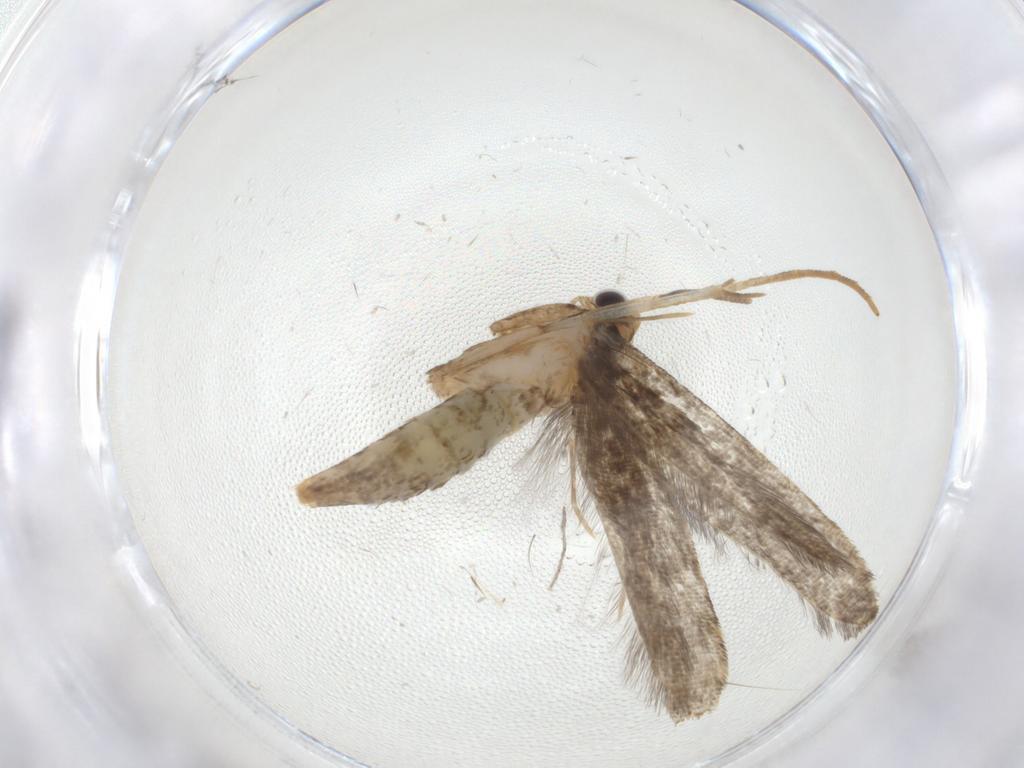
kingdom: Animalia
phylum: Arthropoda
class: Insecta
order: Lepidoptera
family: Tineidae
